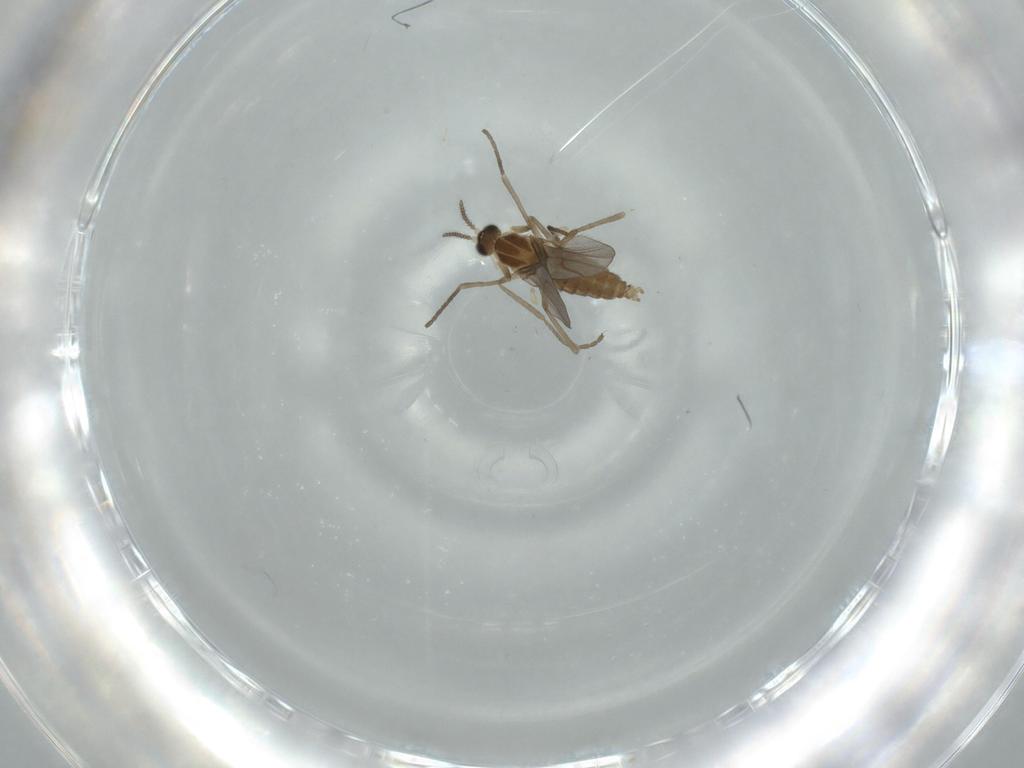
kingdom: Animalia
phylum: Arthropoda
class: Insecta
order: Diptera
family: Cecidomyiidae
